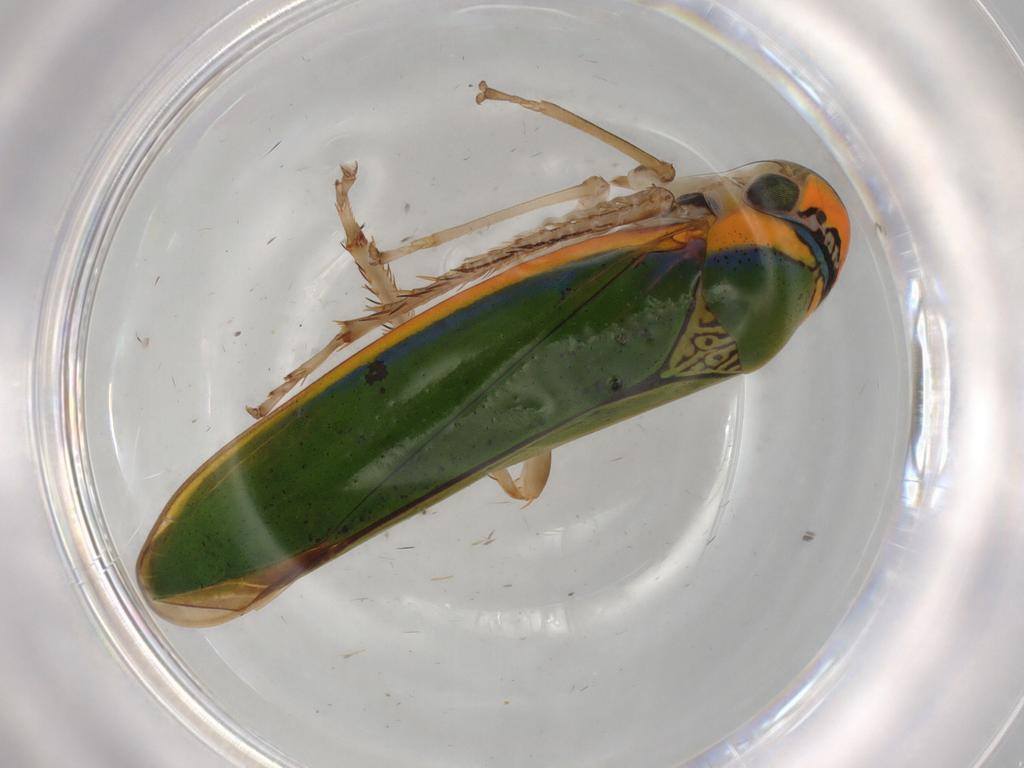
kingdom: Animalia
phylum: Arthropoda
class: Insecta
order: Hemiptera
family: Cicadellidae
